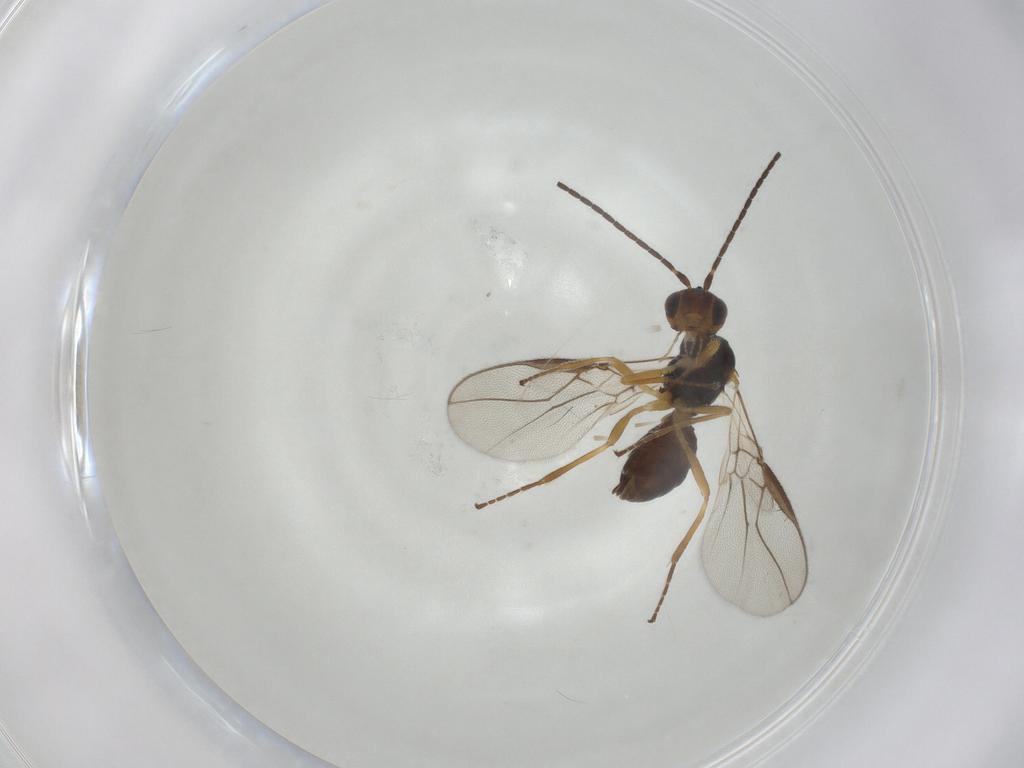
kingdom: Animalia
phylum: Arthropoda
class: Insecta
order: Hymenoptera
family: Braconidae
